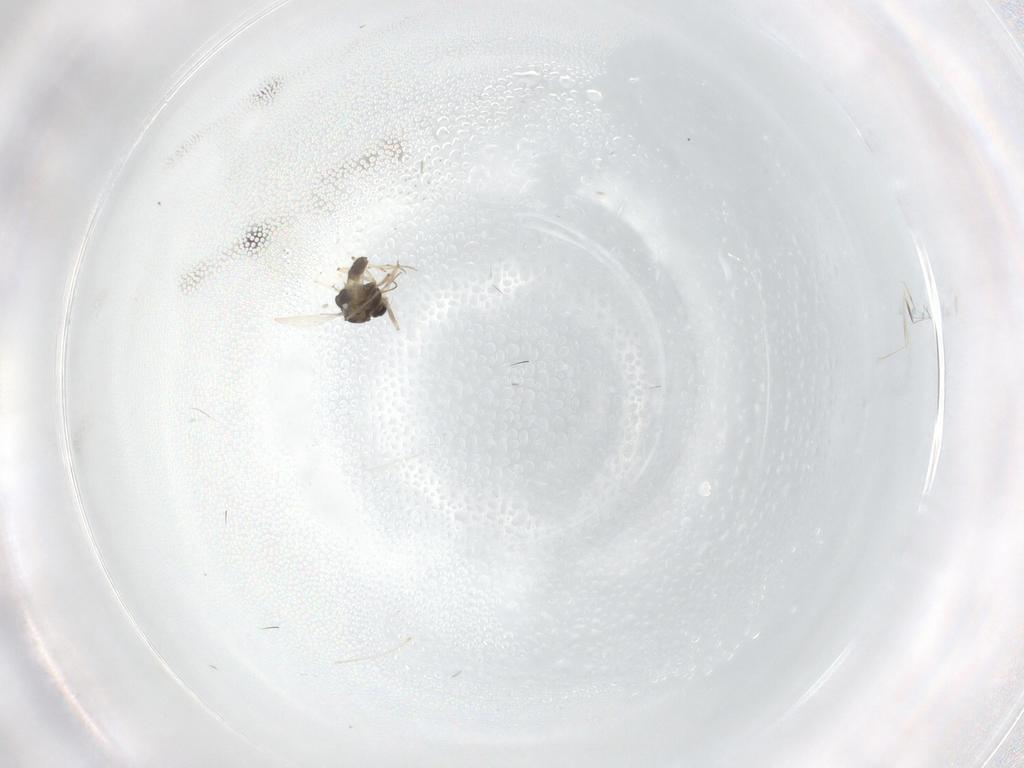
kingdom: Animalia
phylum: Arthropoda
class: Insecta
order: Diptera
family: Chironomidae
